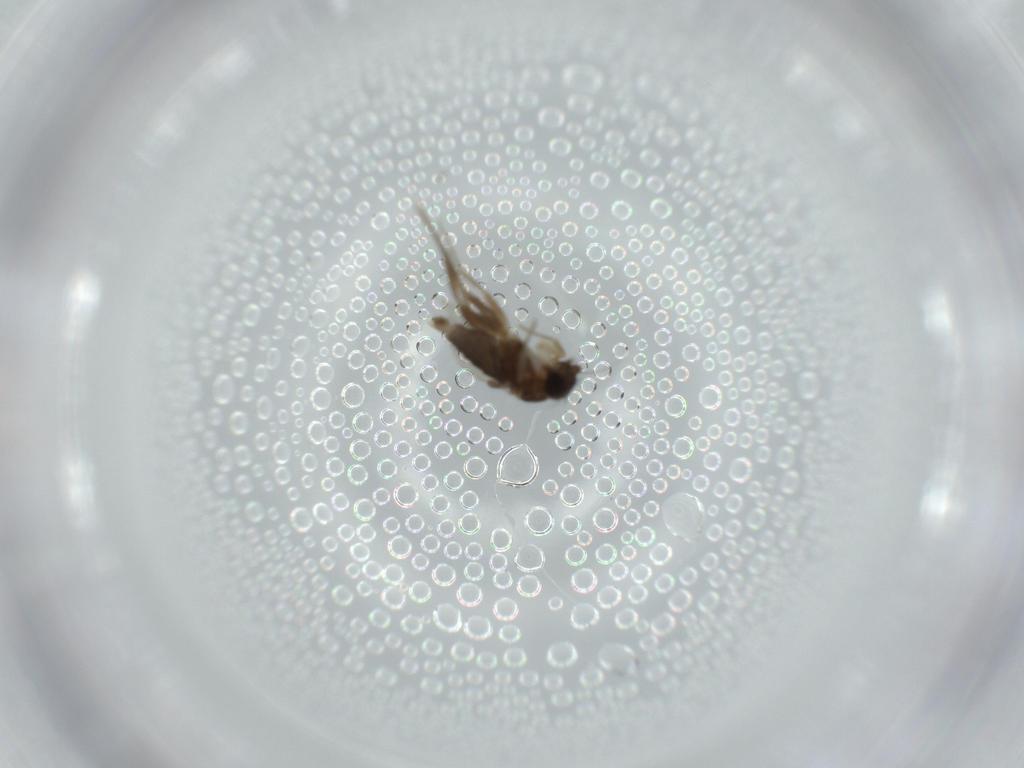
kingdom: Animalia
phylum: Arthropoda
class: Insecta
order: Diptera
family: Phoridae
